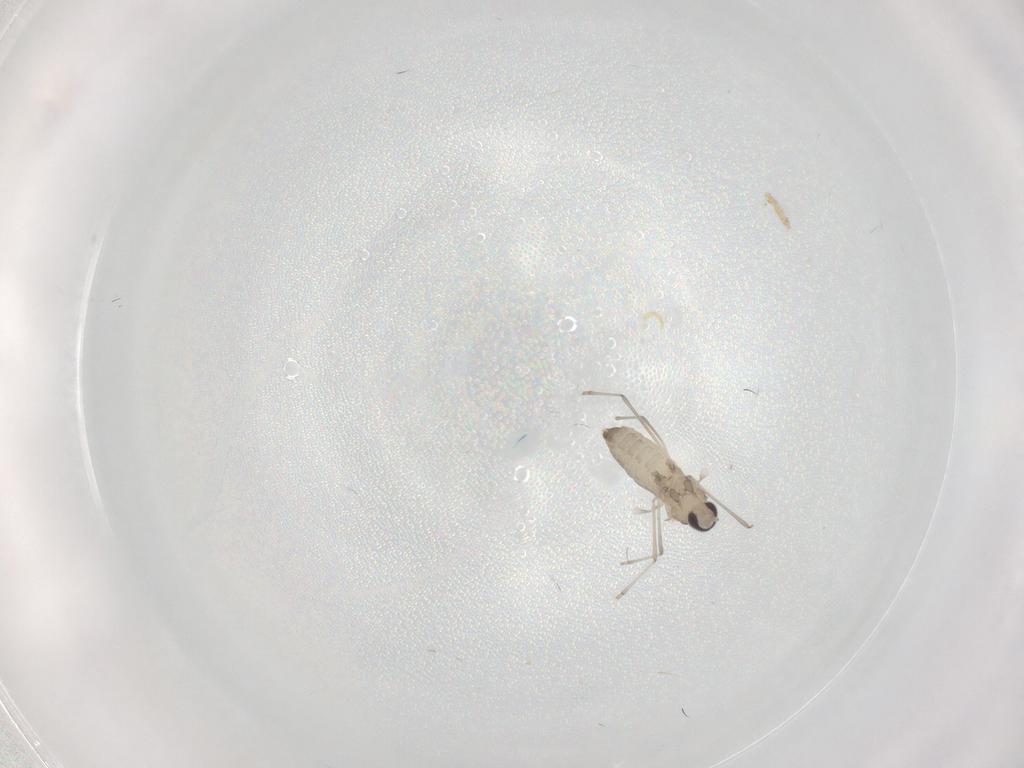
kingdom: Animalia
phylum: Arthropoda
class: Insecta
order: Diptera
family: Cecidomyiidae
